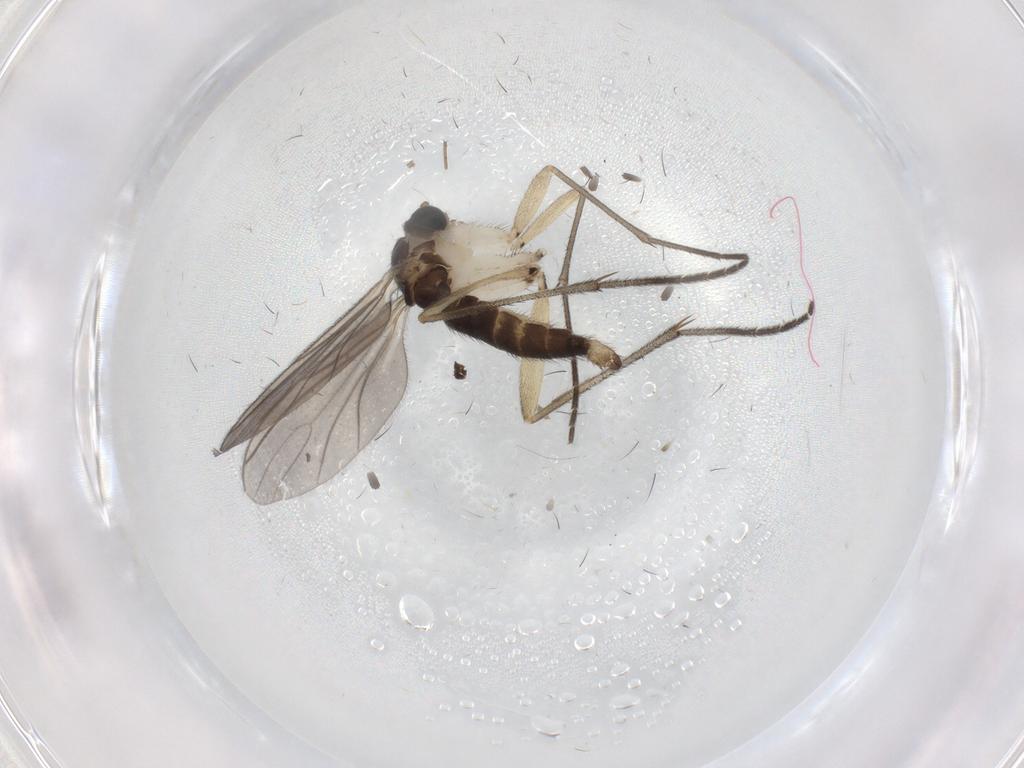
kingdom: Animalia
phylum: Arthropoda
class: Insecta
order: Diptera
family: Sciaridae
